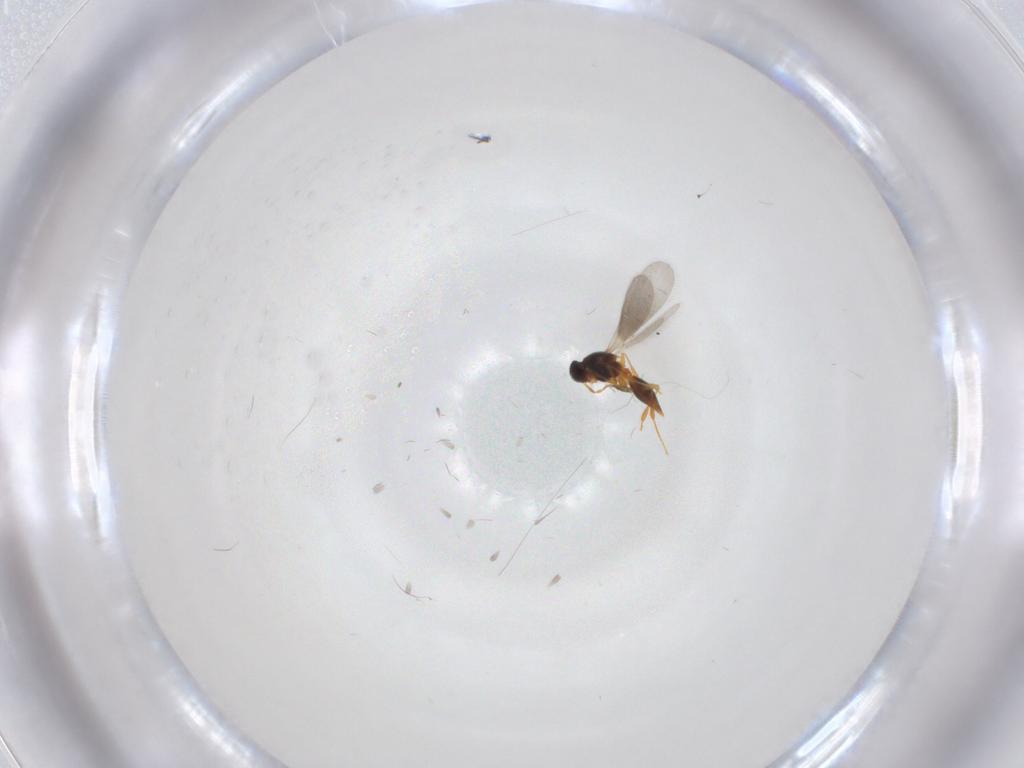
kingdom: Animalia
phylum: Arthropoda
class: Insecta
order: Hymenoptera
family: Platygastridae
